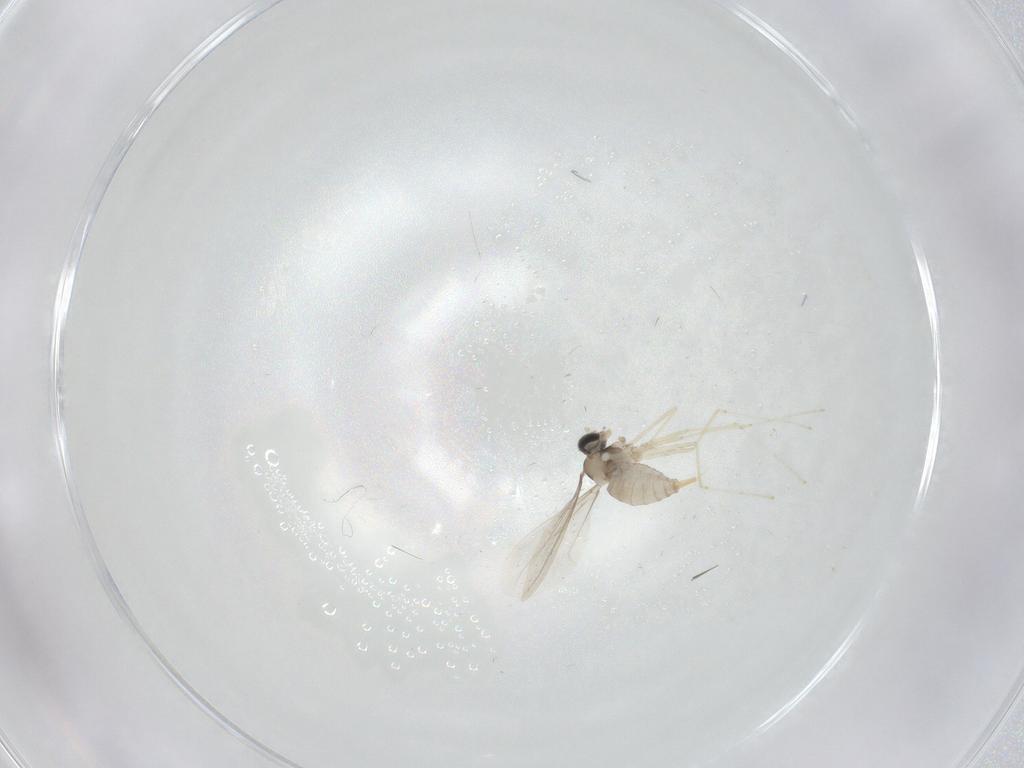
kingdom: Animalia
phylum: Arthropoda
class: Insecta
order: Diptera
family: Cecidomyiidae
